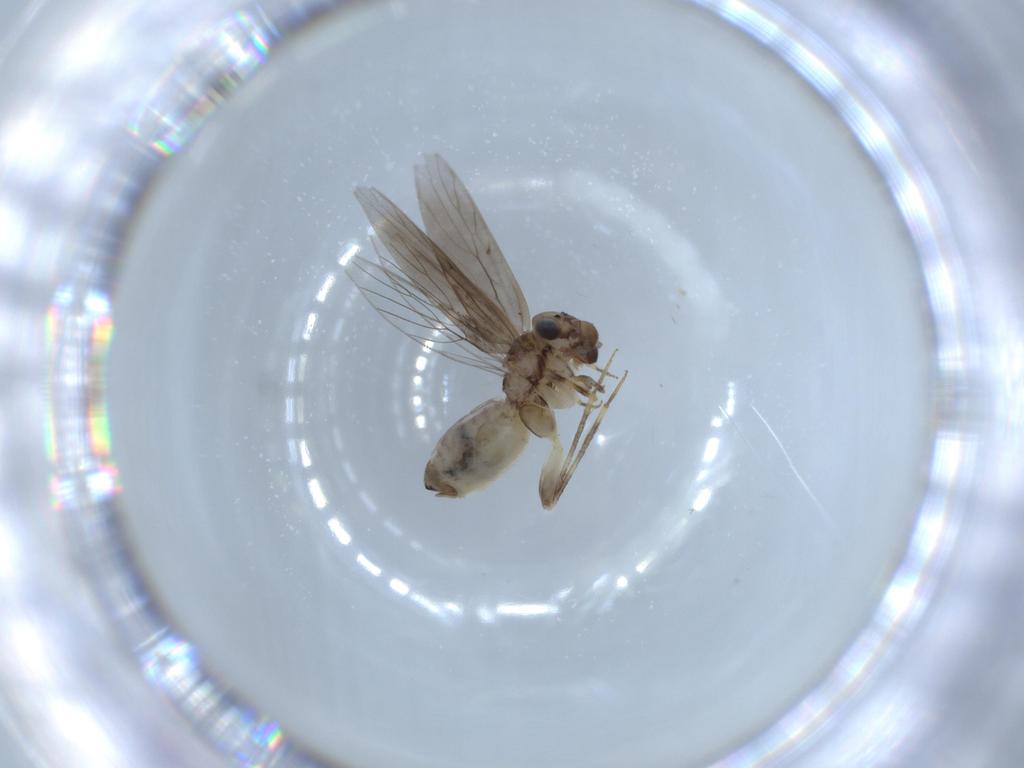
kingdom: Animalia
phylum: Arthropoda
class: Insecta
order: Psocodea
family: Lepidopsocidae
